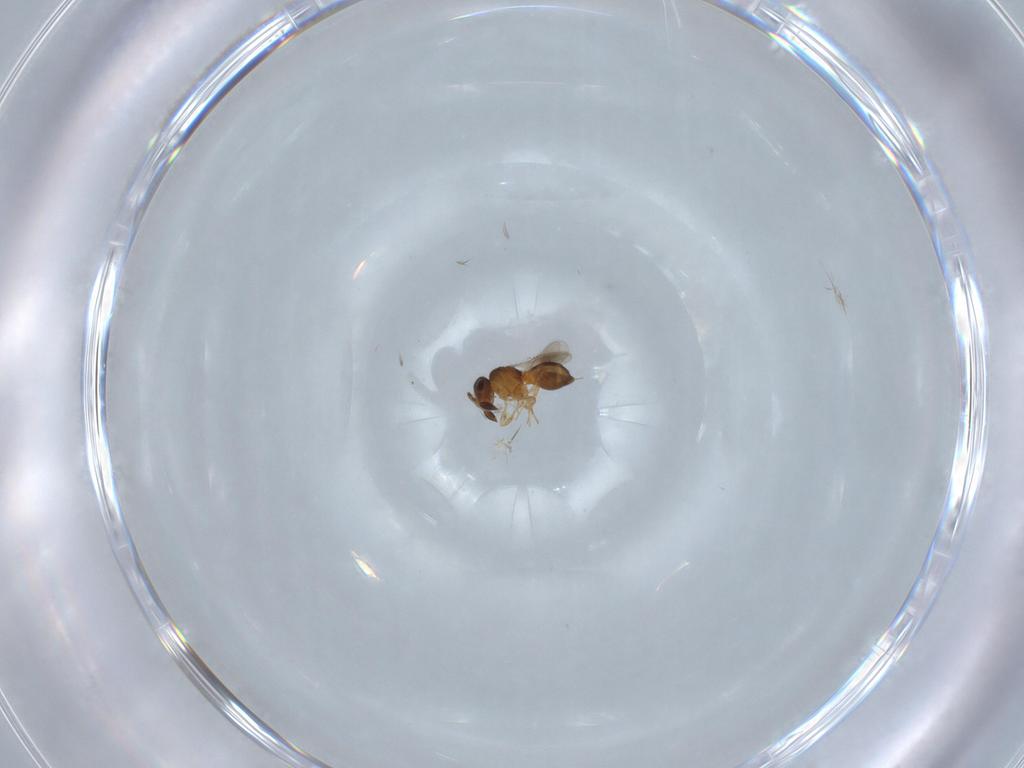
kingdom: Animalia
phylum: Arthropoda
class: Insecta
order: Hymenoptera
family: Scelionidae
